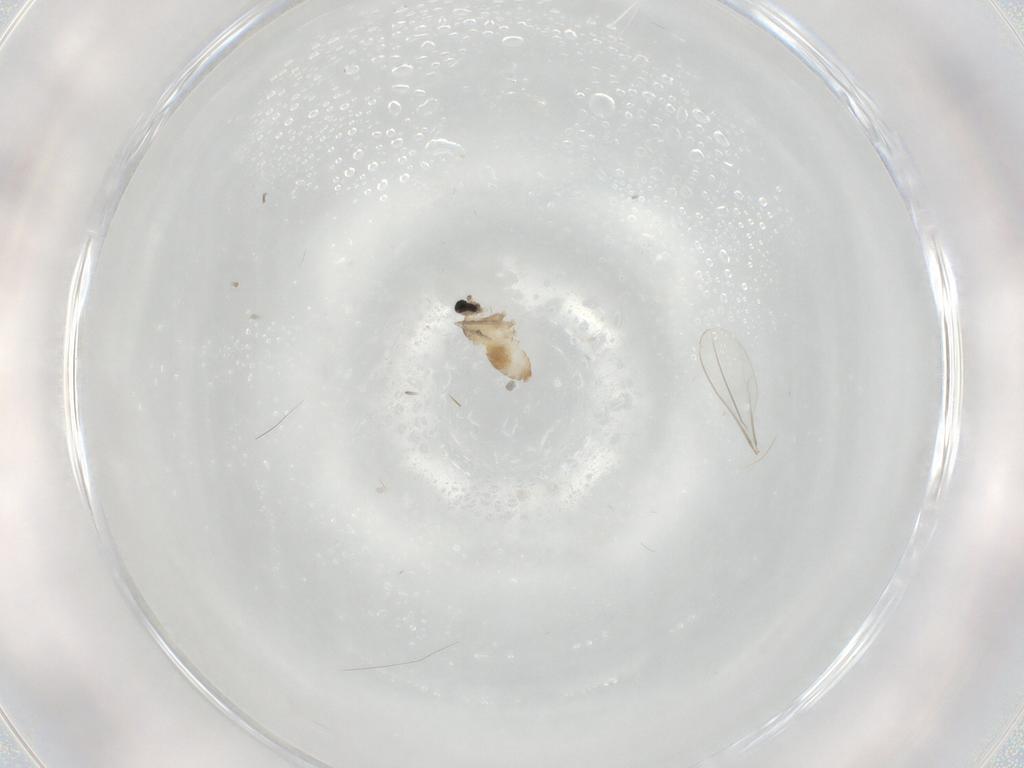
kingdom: Animalia
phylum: Arthropoda
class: Insecta
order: Diptera
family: Cecidomyiidae
